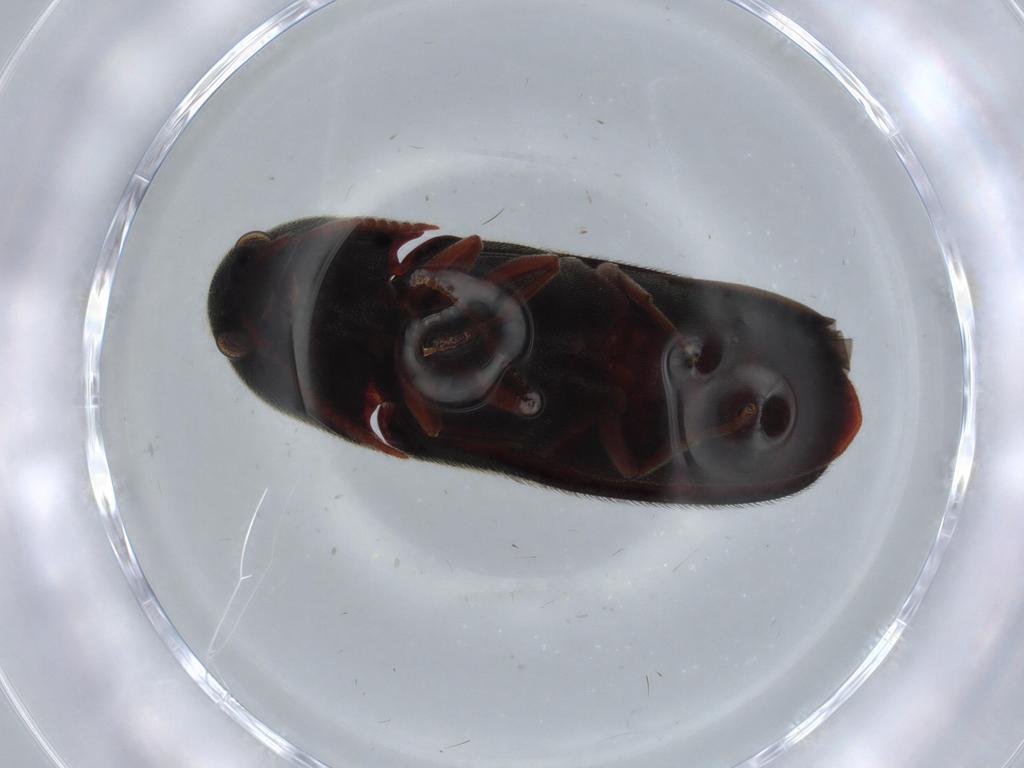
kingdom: Animalia
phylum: Arthropoda
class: Insecta
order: Coleoptera
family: Eucnemidae
